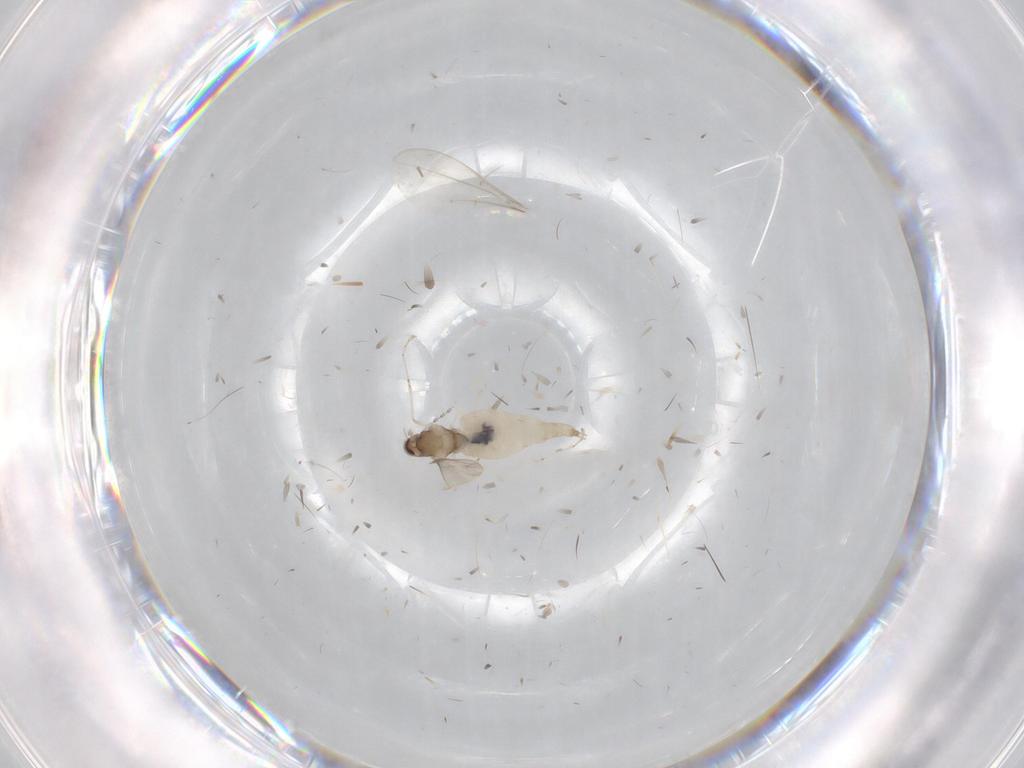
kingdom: Animalia
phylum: Arthropoda
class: Insecta
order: Diptera
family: Cecidomyiidae
